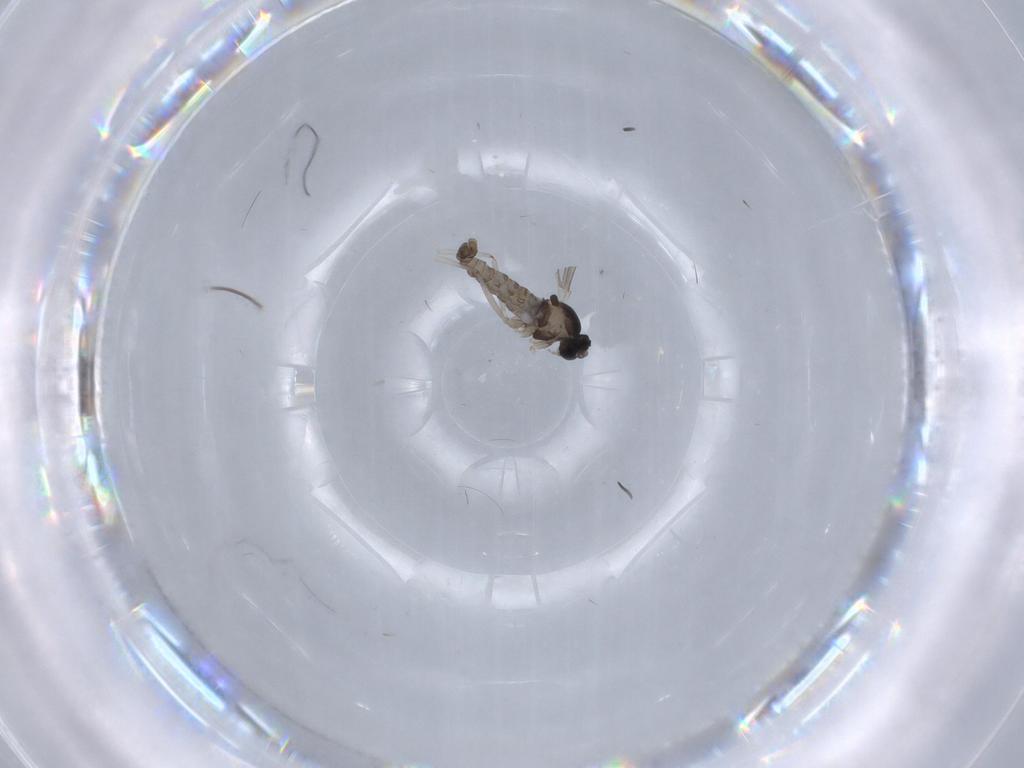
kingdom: Animalia
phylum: Arthropoda
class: Insecta
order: Diptera
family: Cecidomyiidae
